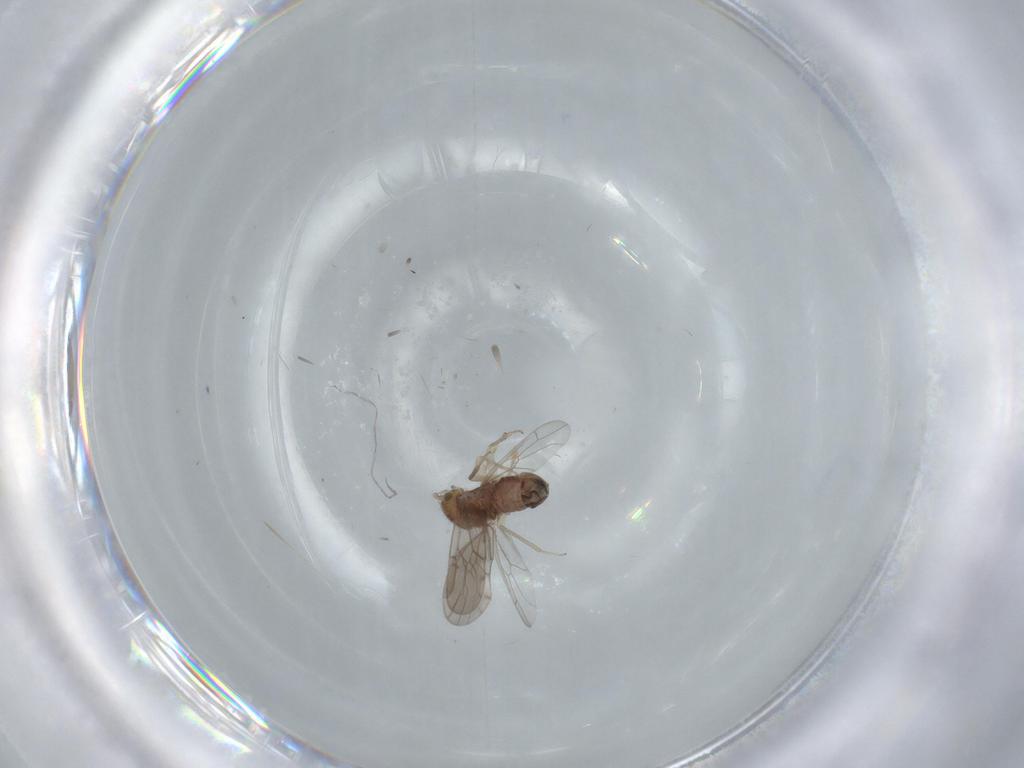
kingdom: Animalia
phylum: Arthropoda
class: Insecta
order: Psocodea
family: Ectopsocidae
